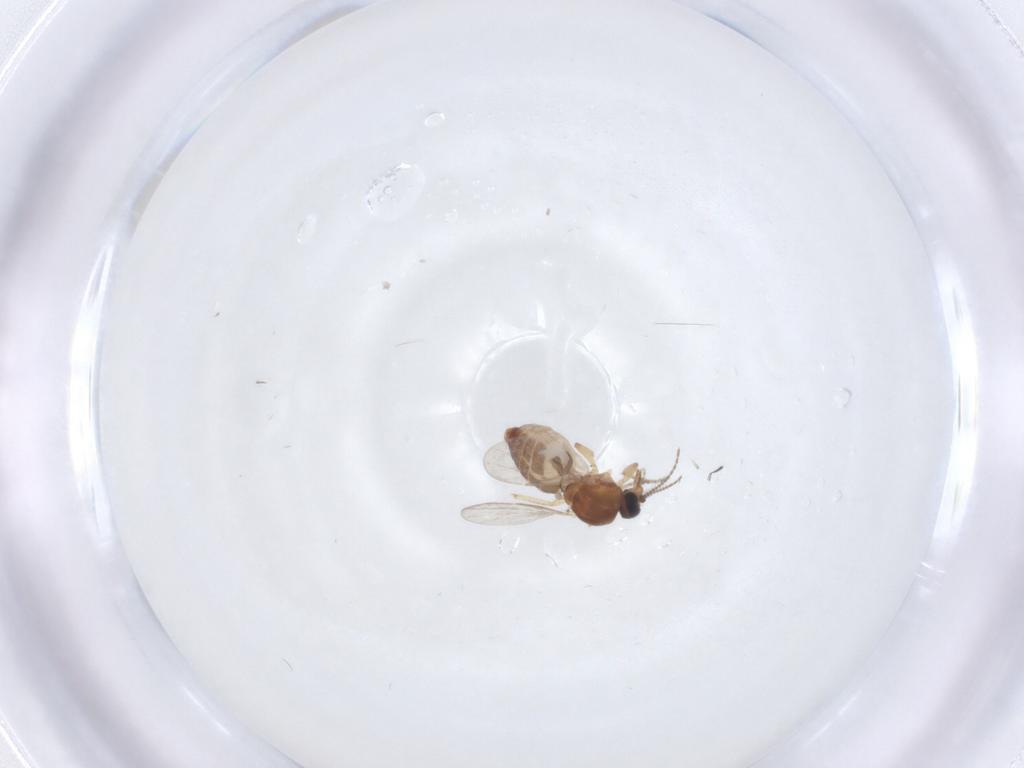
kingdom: Animalia
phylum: Arthropoda
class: Insecta
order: Diptera
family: Ceratopogonidae
